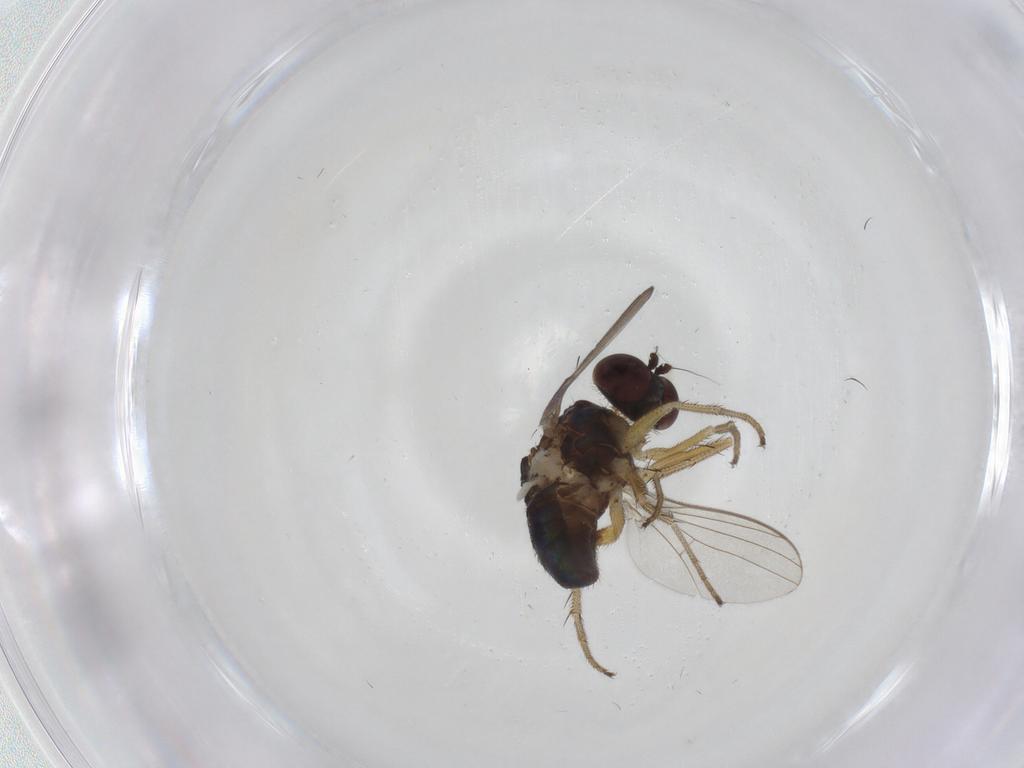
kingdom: Animalia
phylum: Arthropoda
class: Insecta
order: Diptera
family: Dolichopodidae
